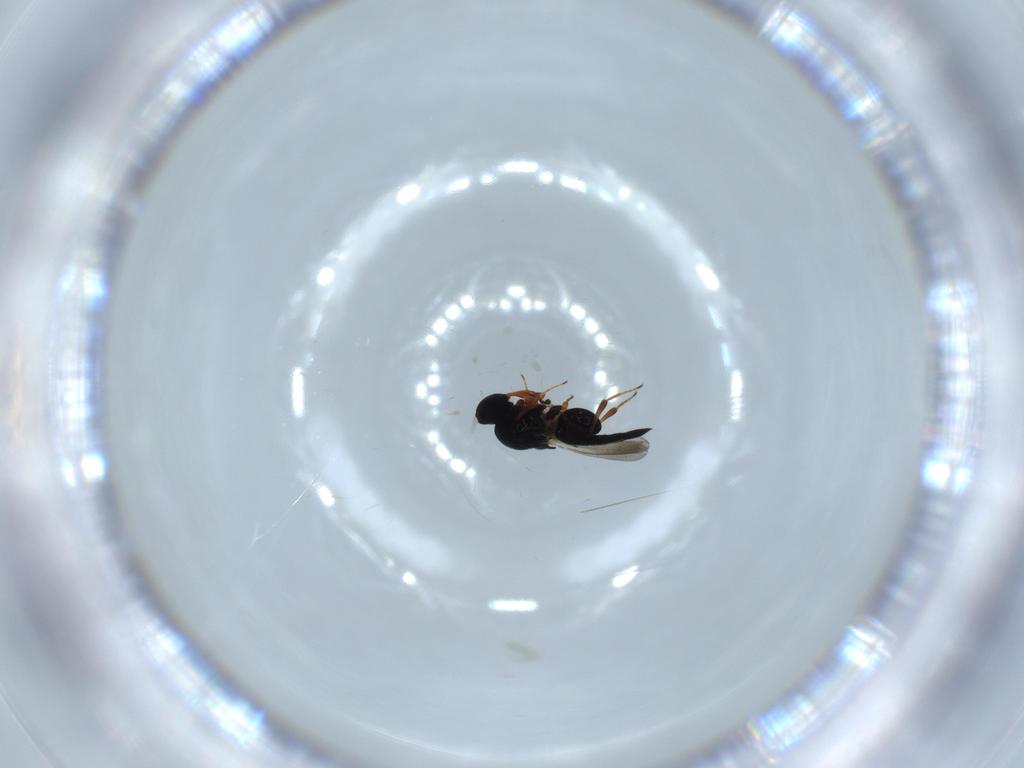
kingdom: Animalia
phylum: Arthropoda
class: Insecta
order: Hymenoptera
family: Platygastridae
